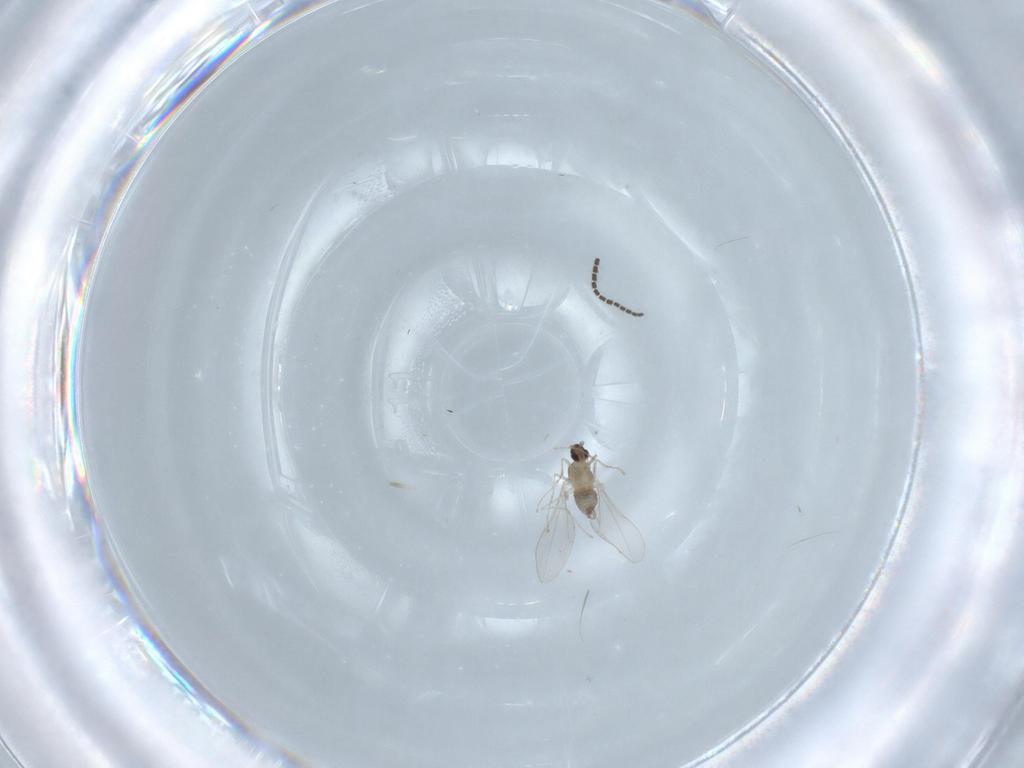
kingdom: Animalia
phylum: Arthropoda
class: Insecta
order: Diptera
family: Cecidomyiidae
